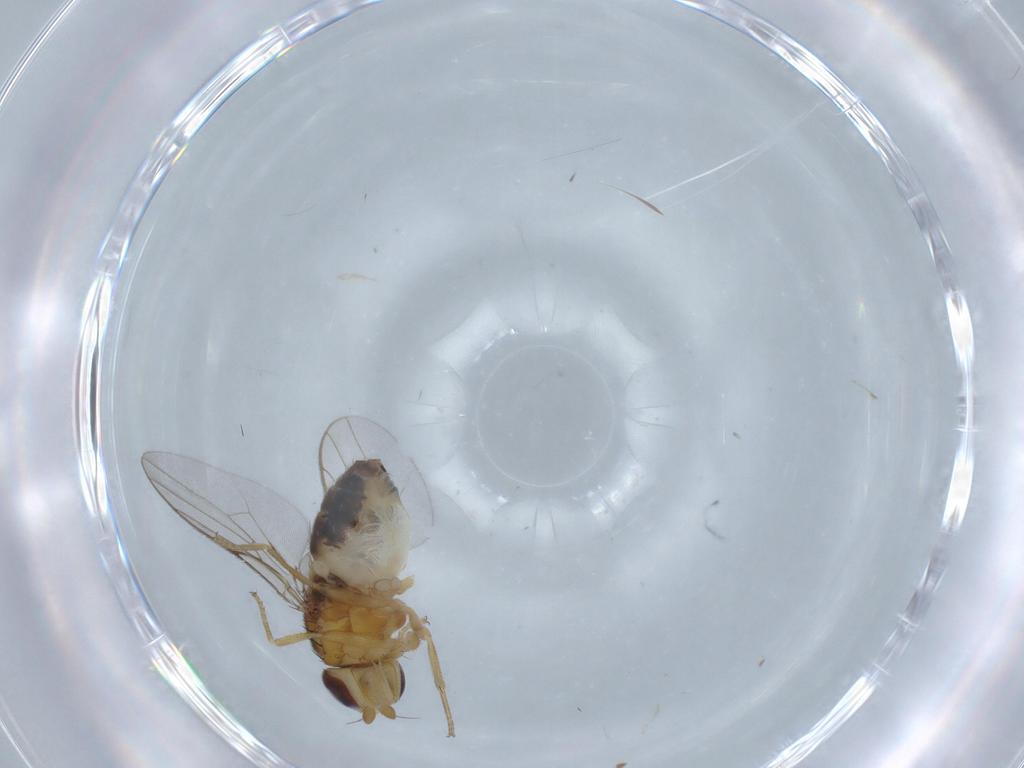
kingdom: Animalia
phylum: Arthropoda
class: Insecta
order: Diptera
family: Chloropidae
